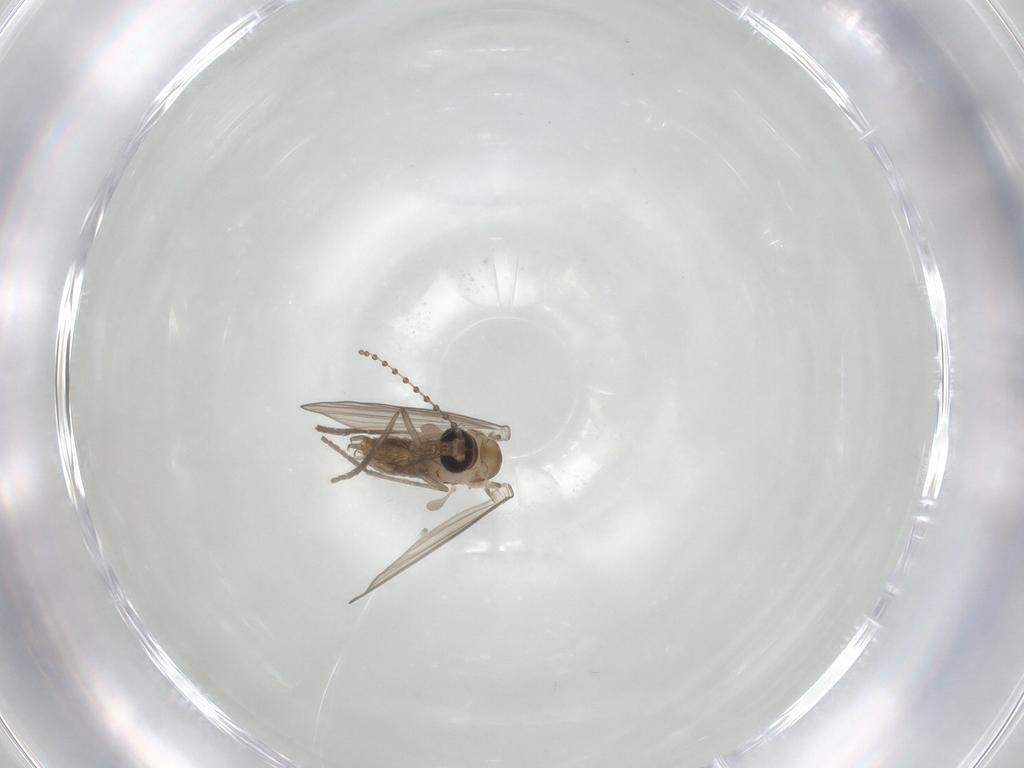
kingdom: Animalia
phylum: Arthropoda
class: Insecta
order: Diptera
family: Psychodidae
